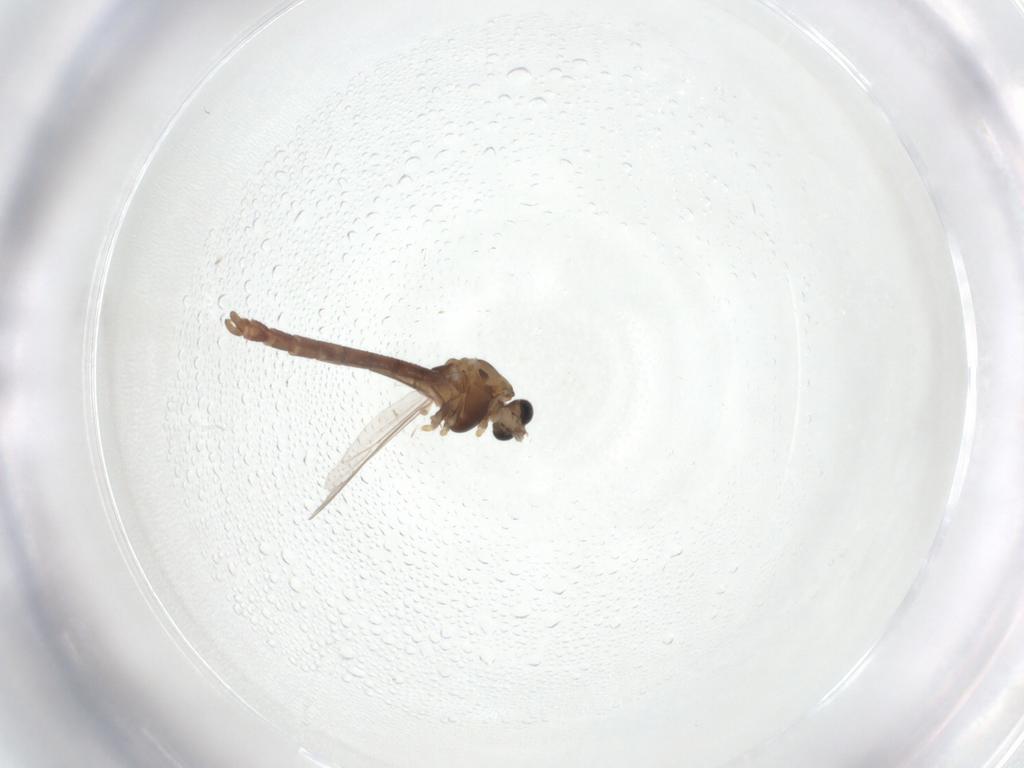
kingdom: Animalia
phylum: Arthropoda
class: Insecta
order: Diptera
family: Chironomidae
